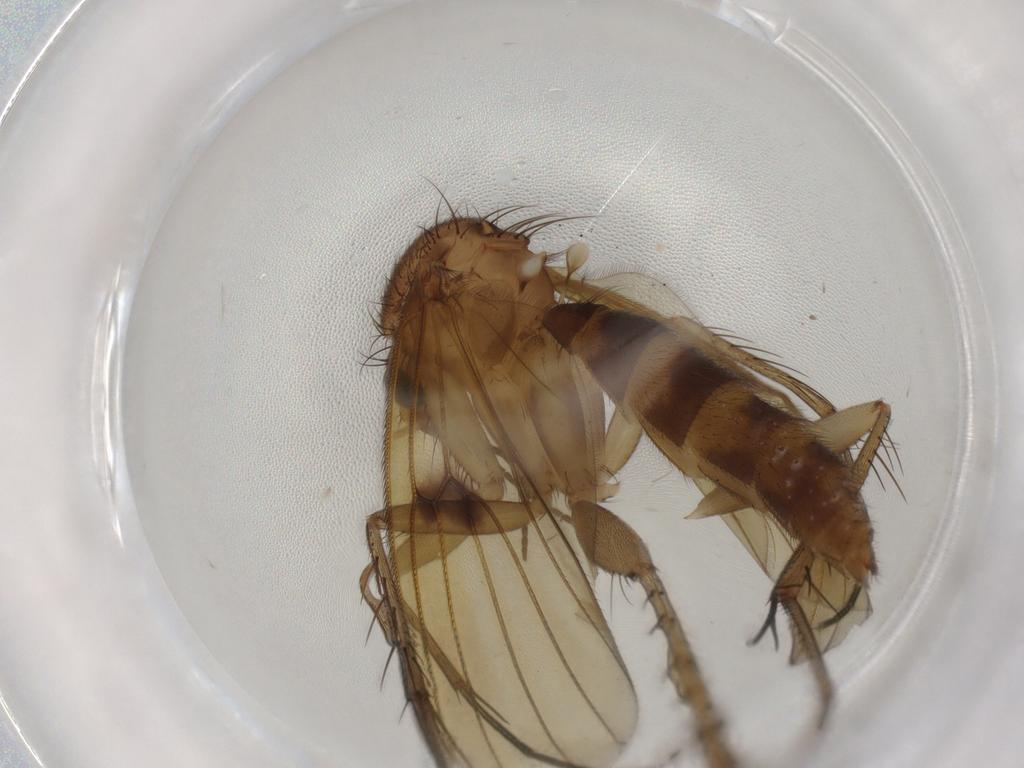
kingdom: Animalia
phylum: Arthropoda
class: Insecta
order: Diptera
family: Mycetophilidae
